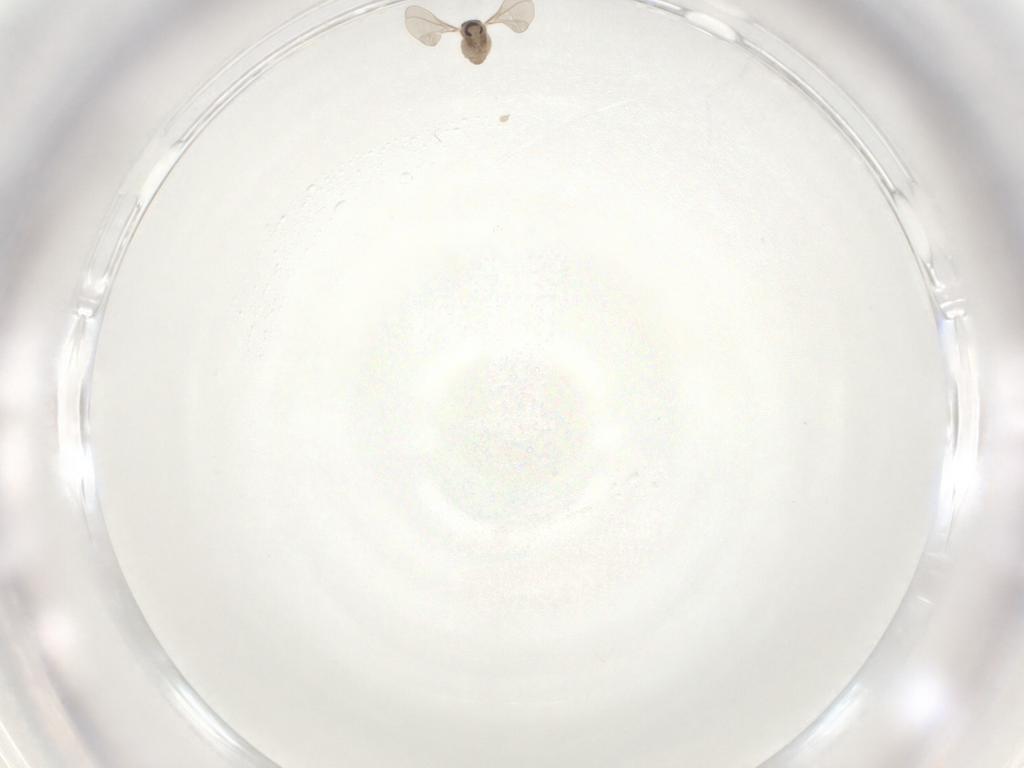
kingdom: Animalia
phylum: Arthropoda
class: Insecta
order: Diptera
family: Cecidomyiidae
